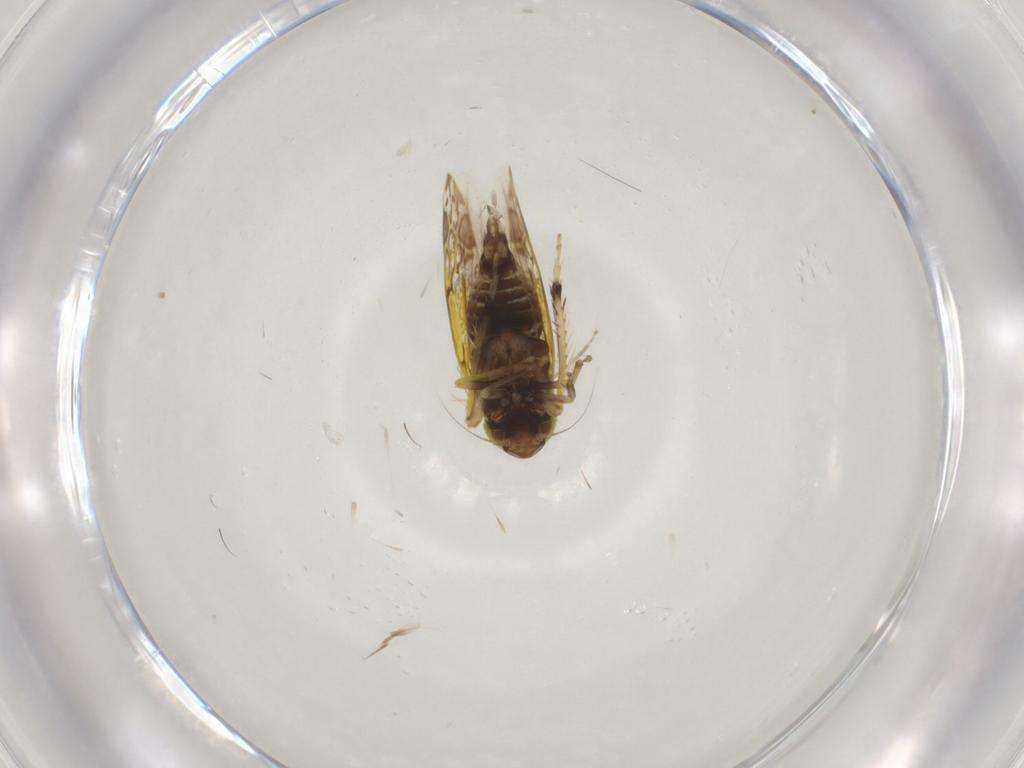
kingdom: Animalia
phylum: Arthropoda
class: Insecta
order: Hemiptera
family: Cicadellidae
